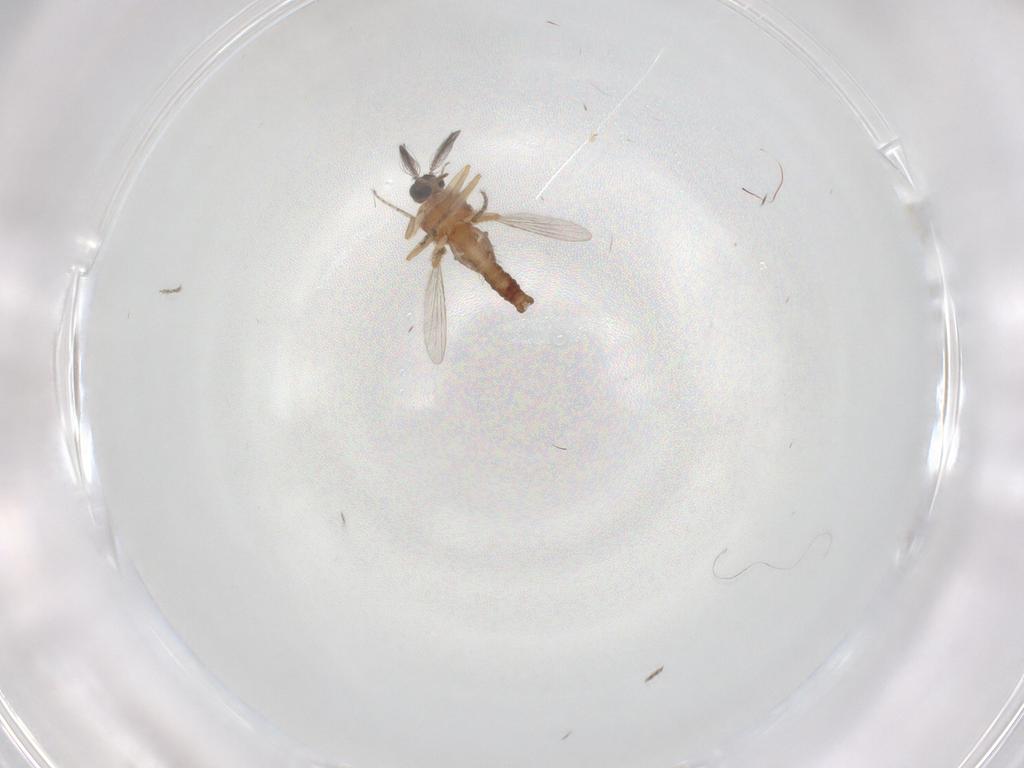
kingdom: Animalia
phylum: Arthropoda
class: Insecta
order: Diptera
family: Ceratopogonidae
